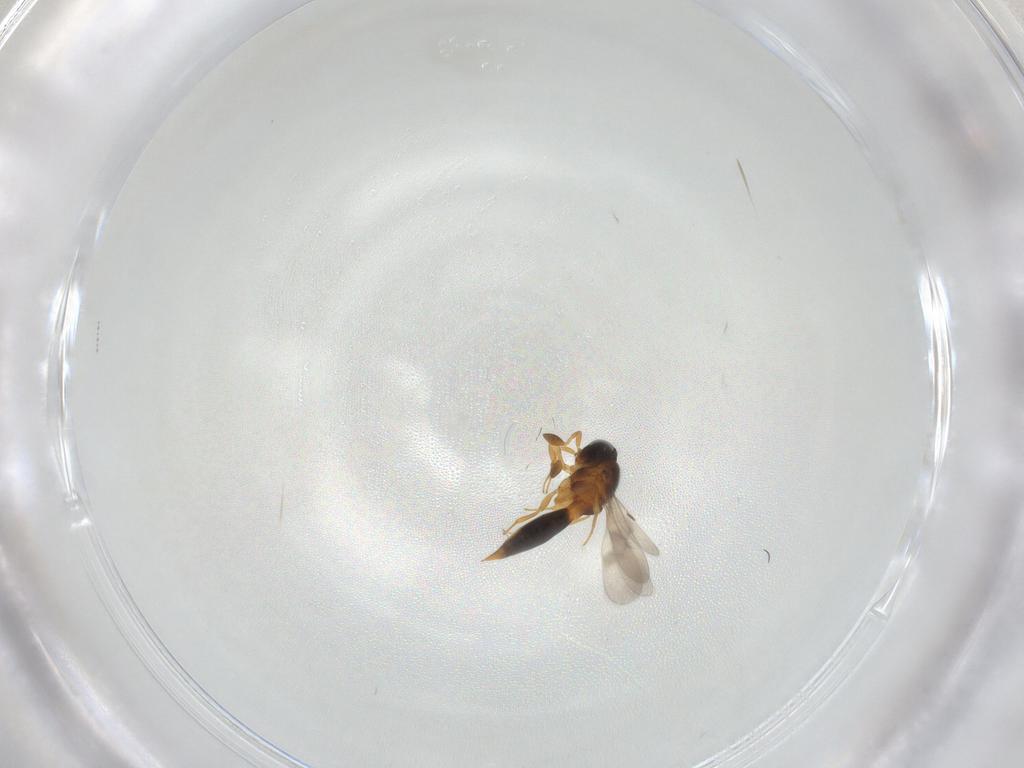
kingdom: Animalia
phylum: Arthropoda
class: Insecta
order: Hymenoptera
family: Scelionidae
